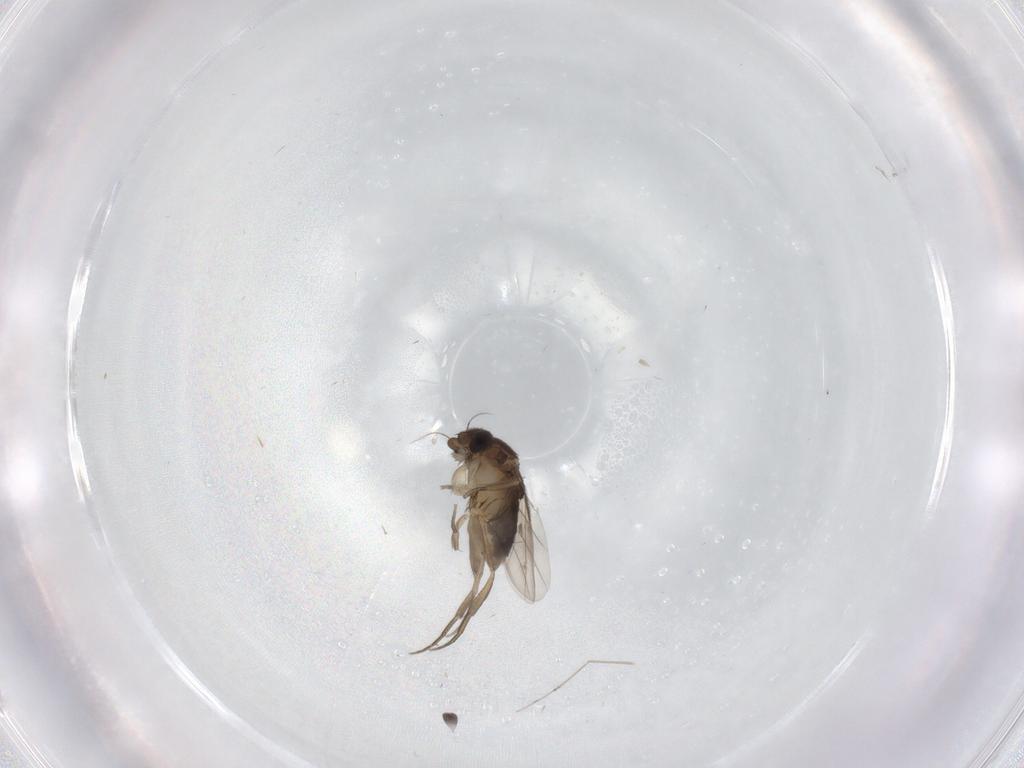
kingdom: Animalia
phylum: Arthropoda
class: Insecta
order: Diptera
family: Phoridae
